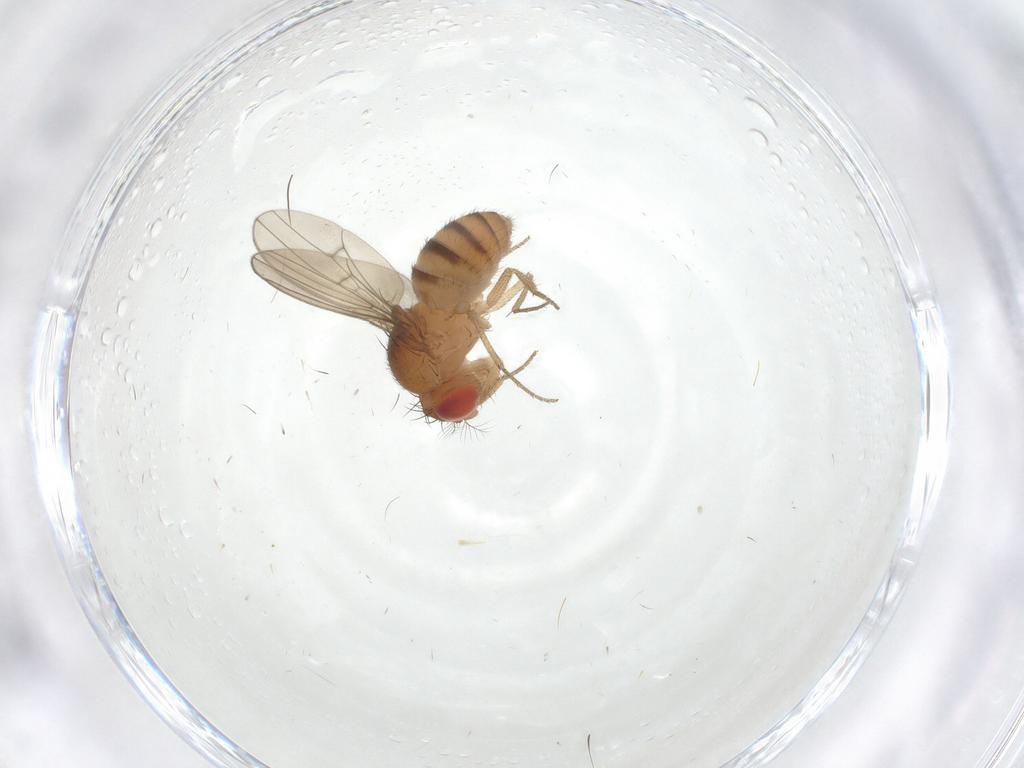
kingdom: Animalia
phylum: Arthropoda
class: Insecta
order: Diptera
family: Drosophilidae
